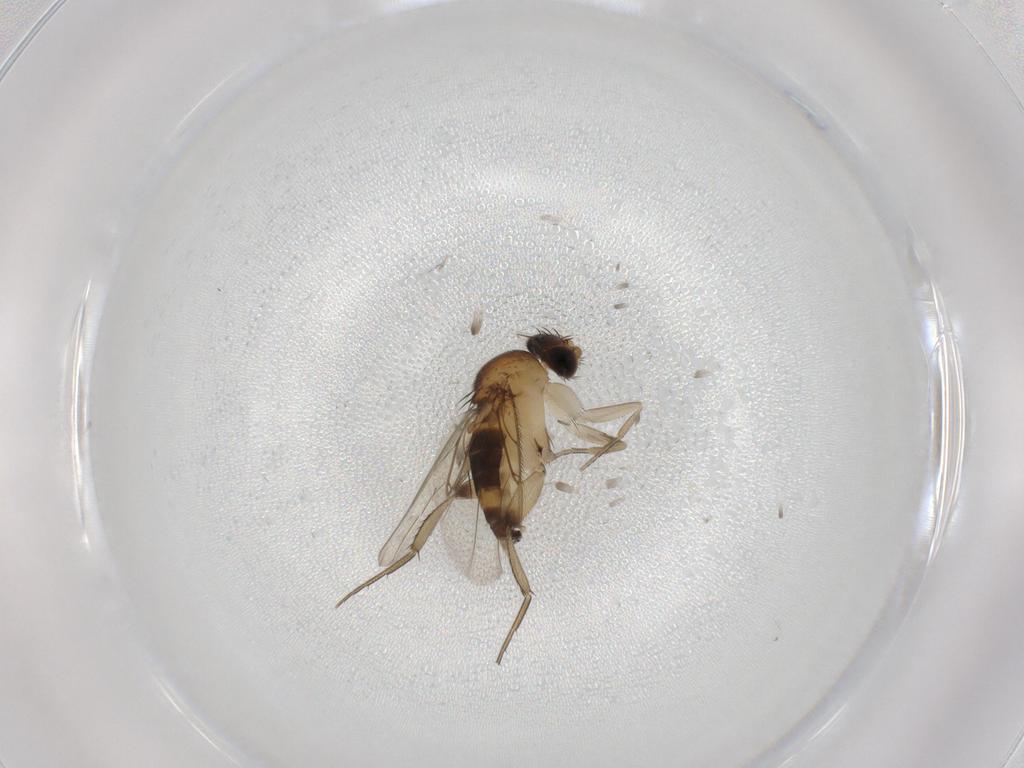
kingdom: Animalia
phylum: Arthropoda
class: Insecta
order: Diptera
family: Phoridae
